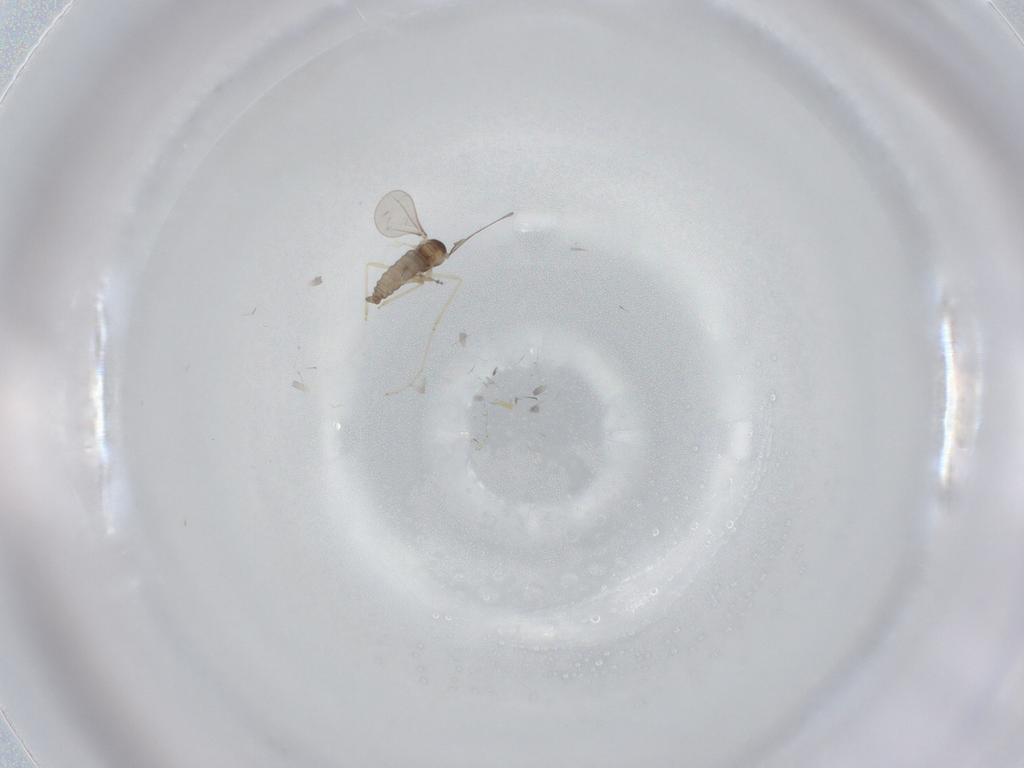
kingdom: Animalia
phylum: Arthropoda
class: Insecta
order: Diptera
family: Cecidomyiidae
